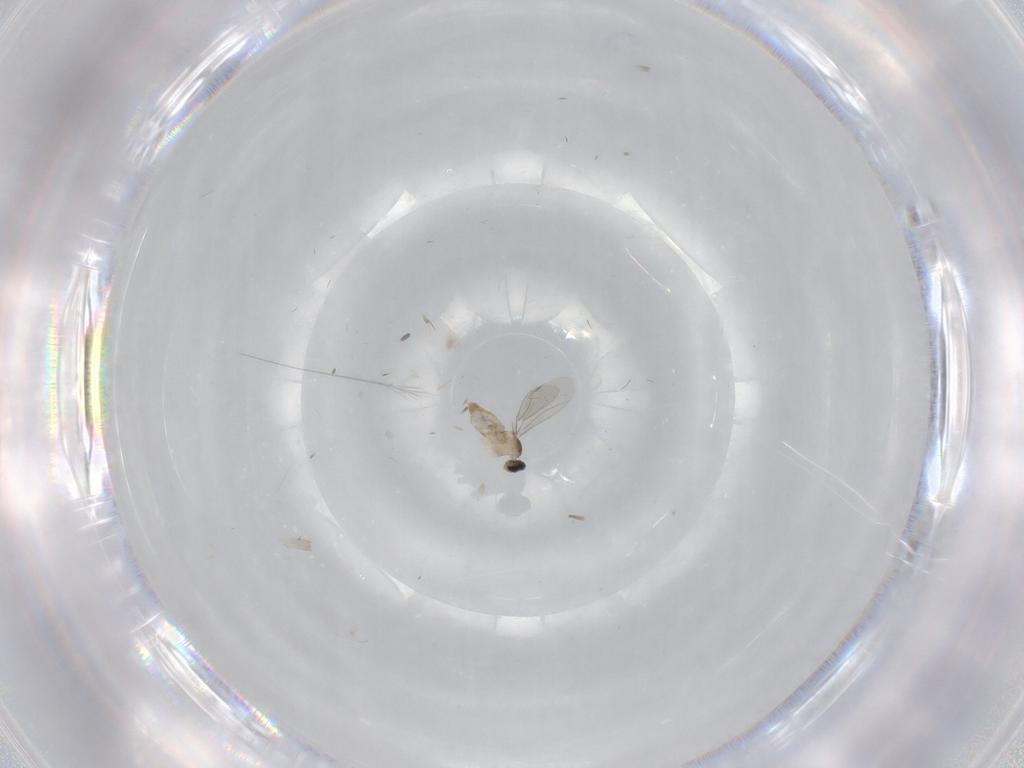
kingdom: Animalia
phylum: Arthropoda
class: Insecta
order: Diptera
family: Cecidomyiidae
